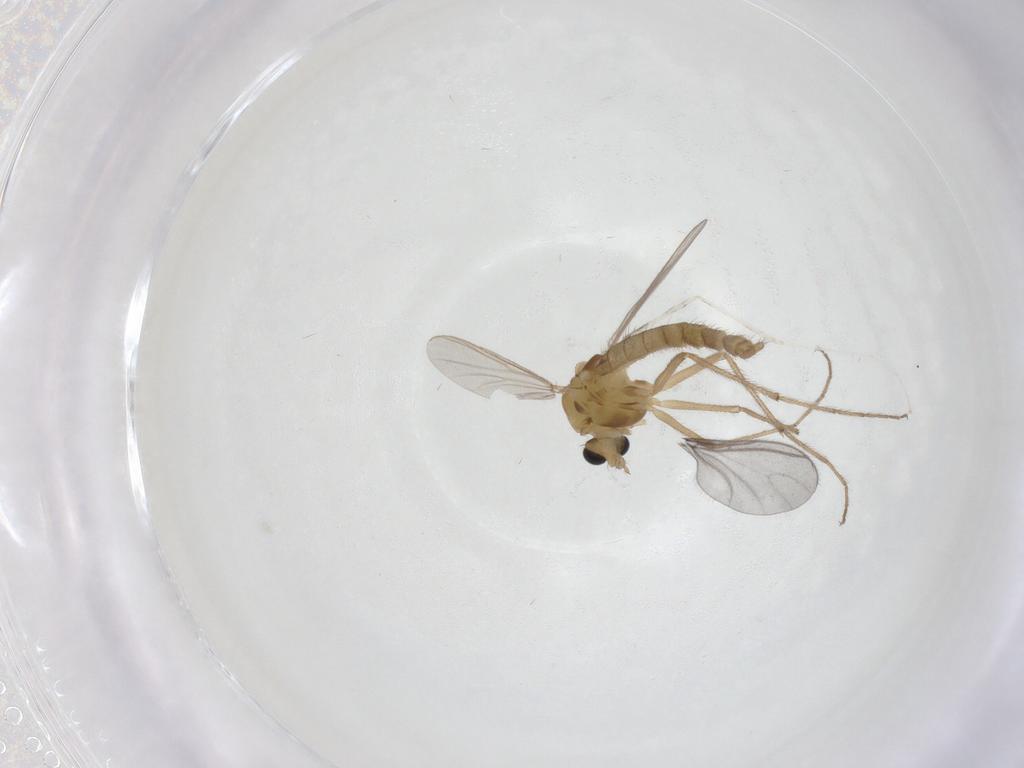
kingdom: Animalia
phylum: Arthropoda
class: Insecta
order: Diptera
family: Chironomidae
